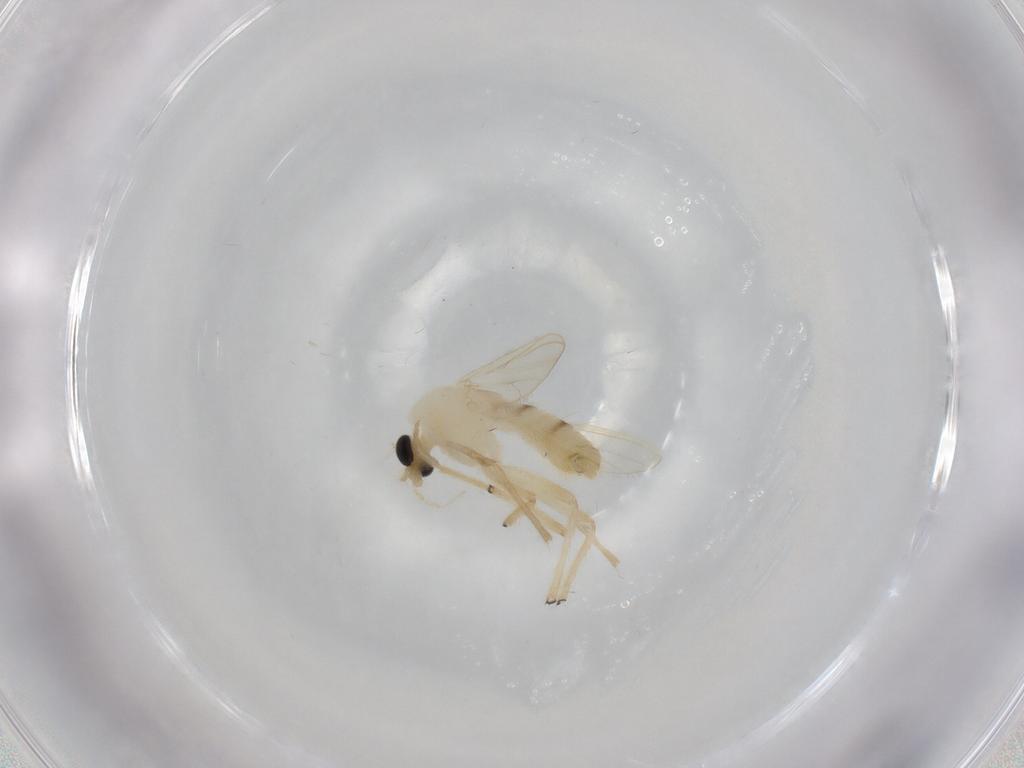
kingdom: Animalia
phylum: Arthropoda
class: Insecta
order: Diptera
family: Chironomidae
